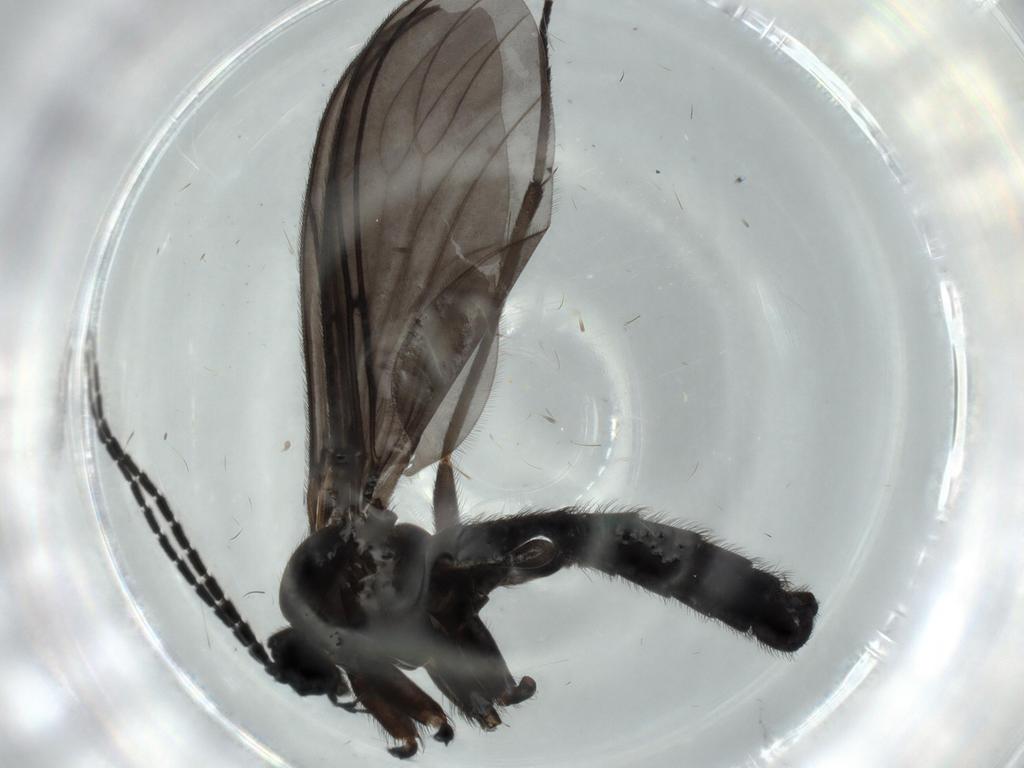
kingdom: Animalia
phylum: Arthropoda
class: Insecta
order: Diptera
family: Sciaridae
